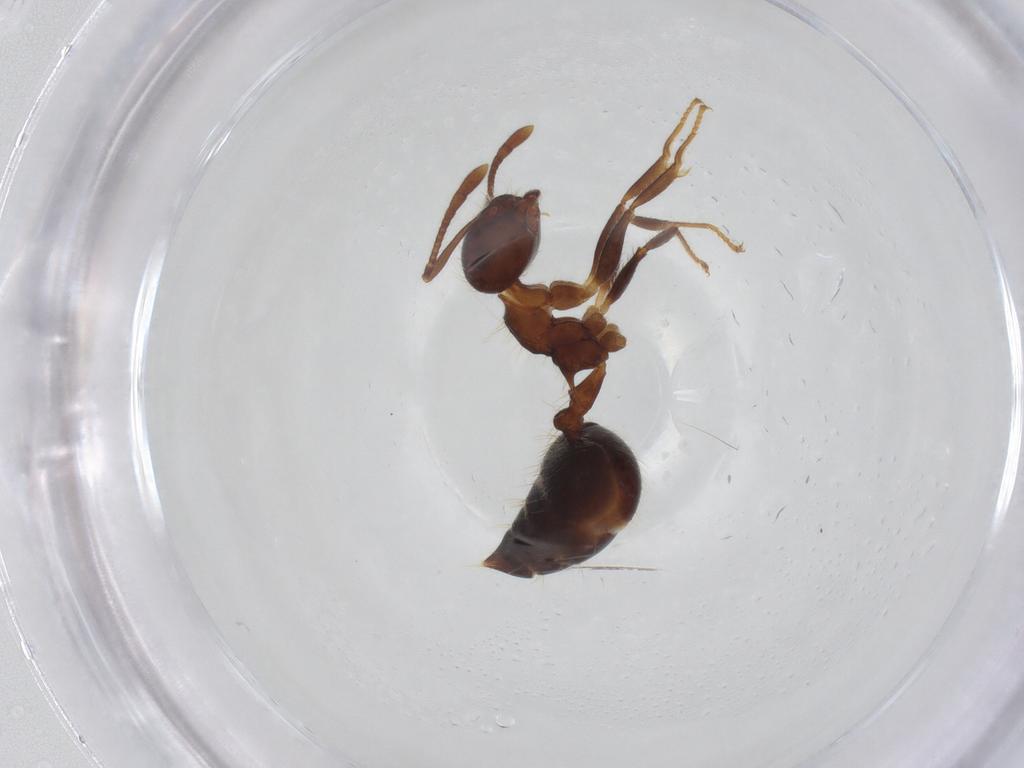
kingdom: Animalia
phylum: Arthropoda
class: Insecta
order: Hymenoptera
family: Formicidae
